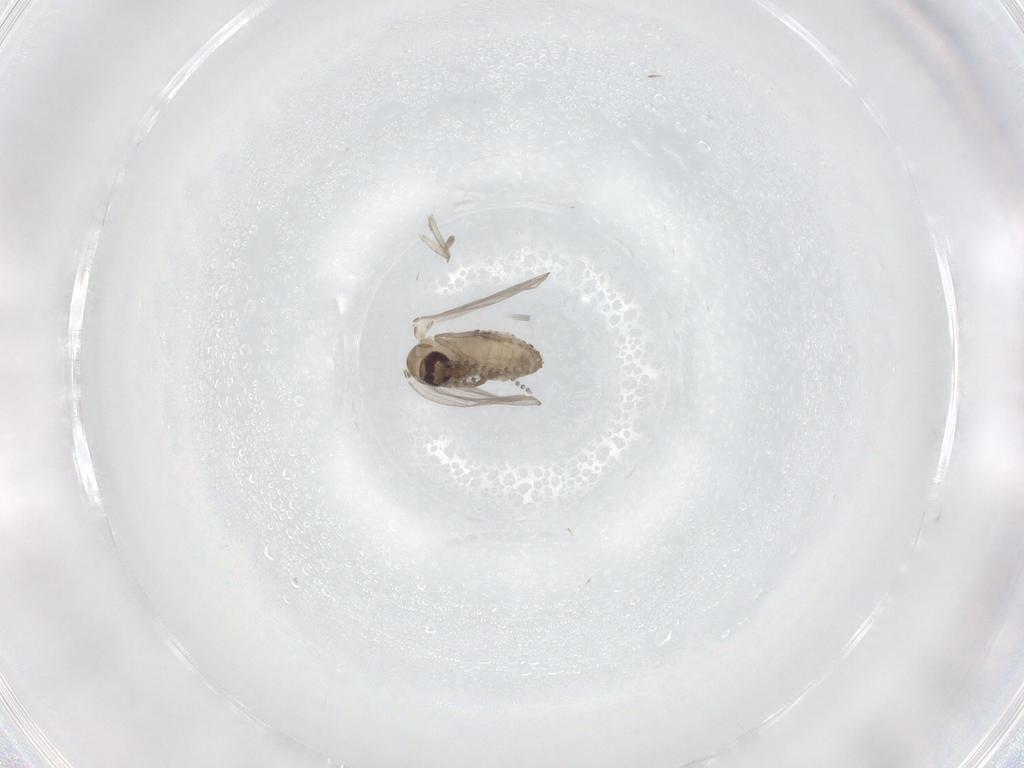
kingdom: Animalia
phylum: Arthropoda
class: Insecta
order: Diptera
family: Psychodidae
